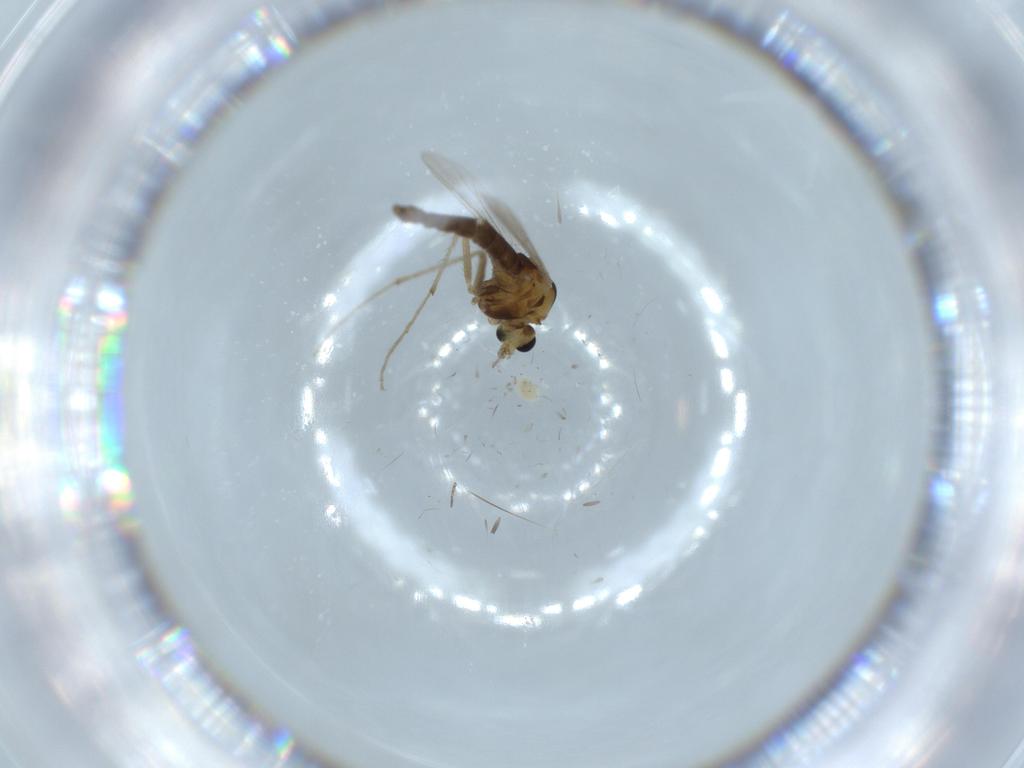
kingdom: Animalia
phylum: Arthropoda
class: Insecta
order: Diptera
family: Chironomidae
